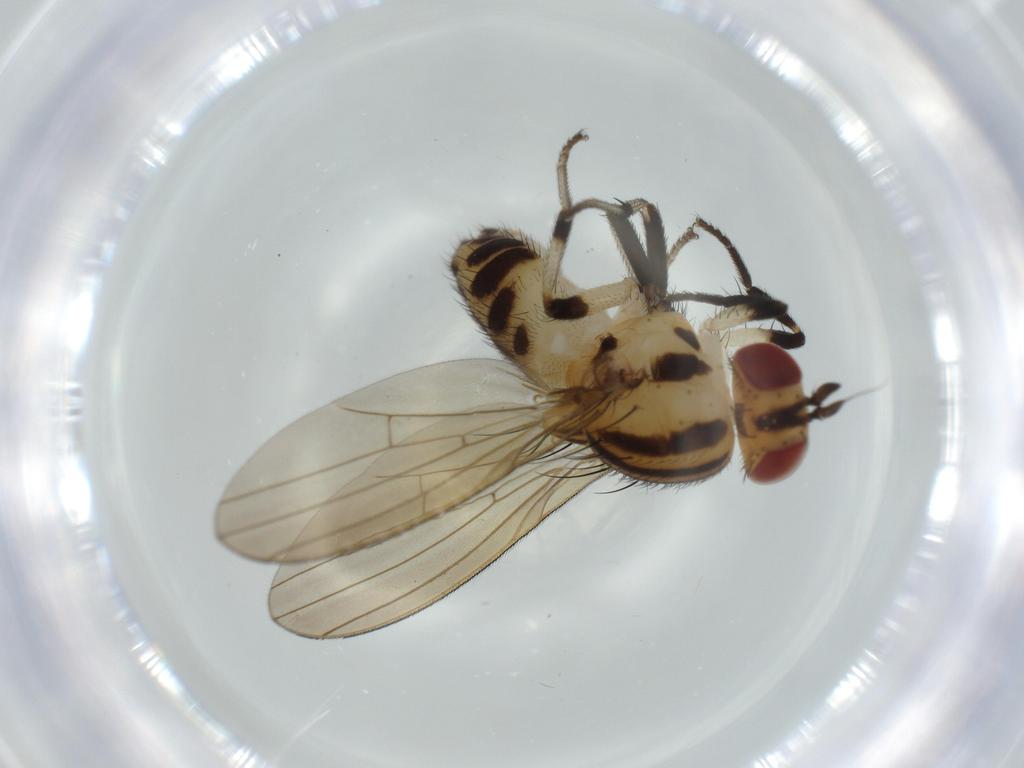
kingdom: Animalia
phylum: Arthropoda
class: Insecta
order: Diptera
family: Lauxaniidae
